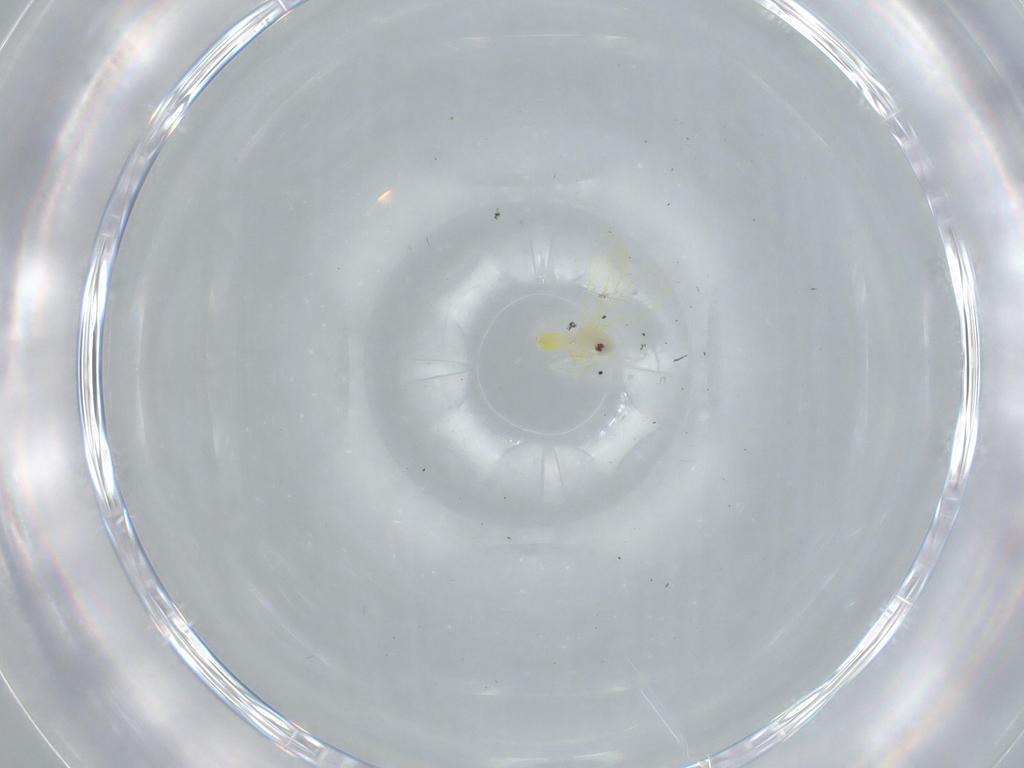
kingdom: Animalia
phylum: Arthropoda
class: Insecta
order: Hemiptera
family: Aleyrodidae
